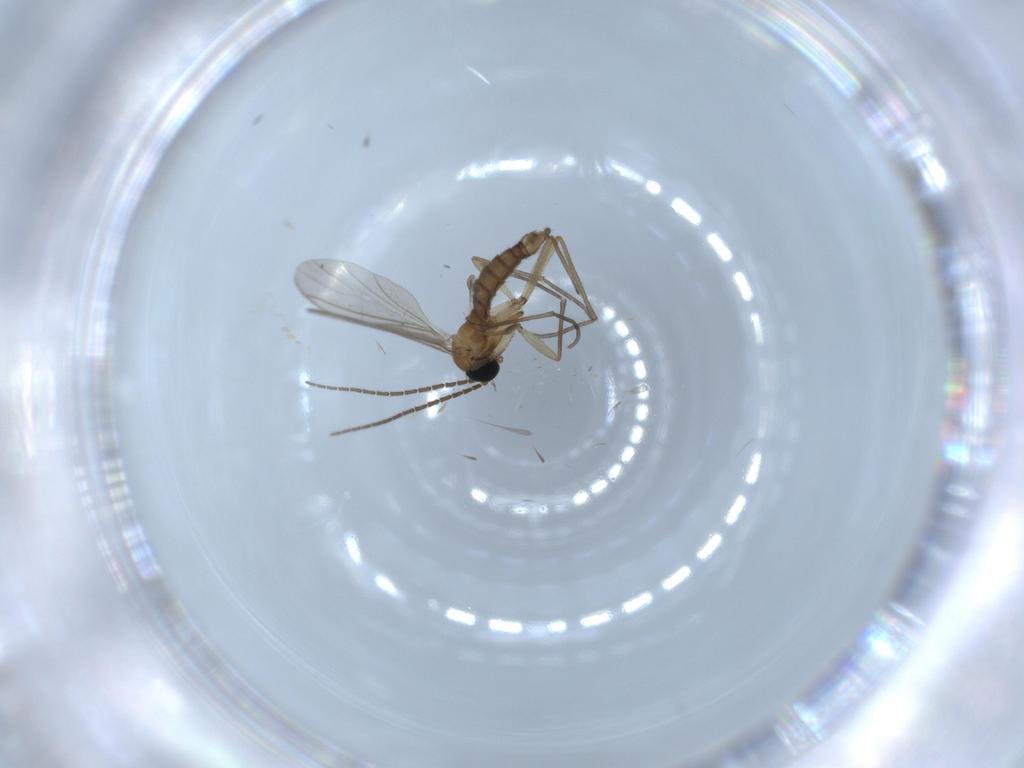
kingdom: Animalia
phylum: Arthropoda
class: Insecta
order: Diptera
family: Sciaridae
